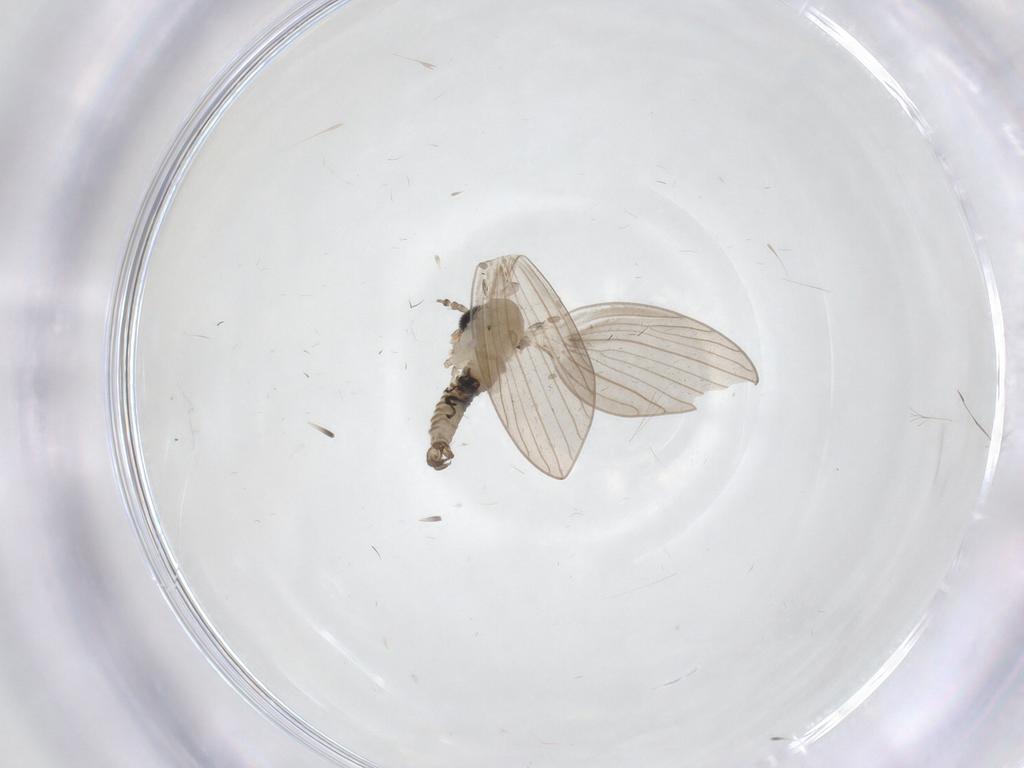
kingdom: Animalia
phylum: Arthropoda
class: Insecta
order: Diptera
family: Psychodidae
